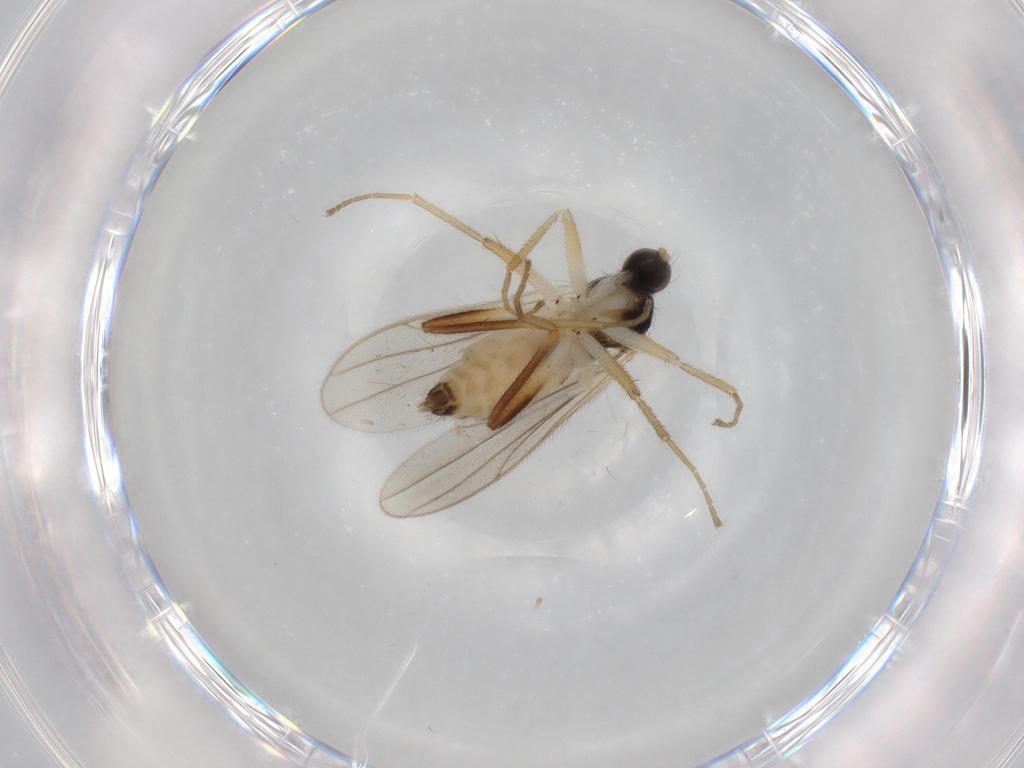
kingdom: Animalia
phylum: Arthropoda
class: Insecta
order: Diptera
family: Hybotidae
